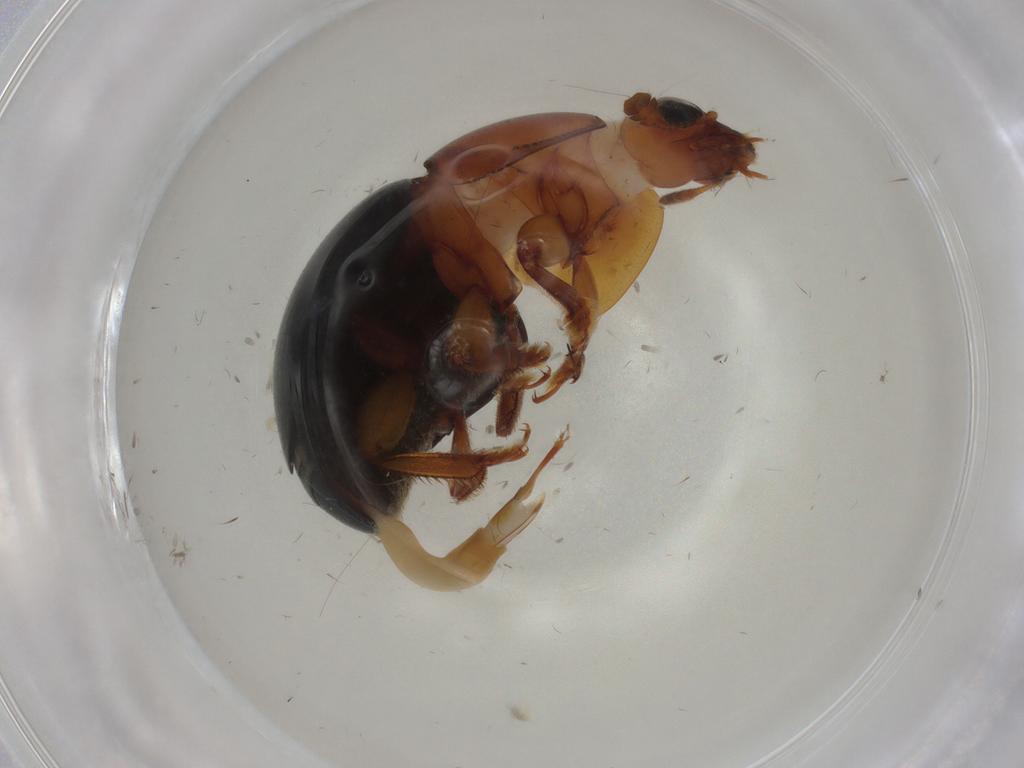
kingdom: Animalia
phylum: Arthropoda
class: Insecta
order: Coleoptera
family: Nitidulidae
